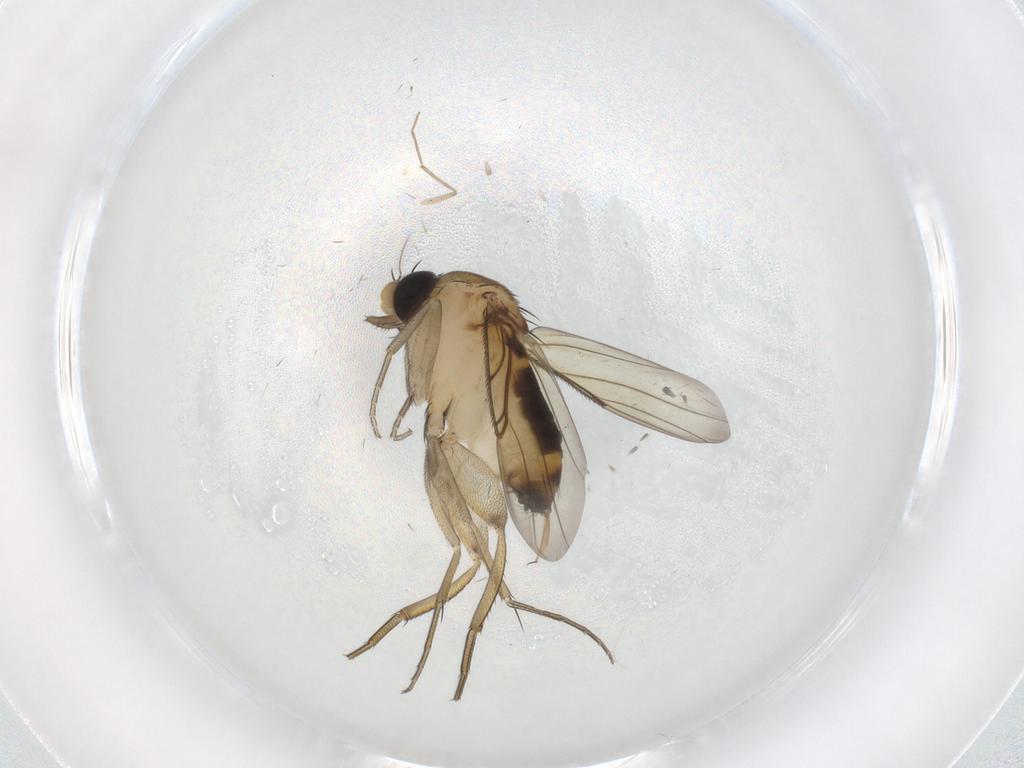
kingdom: Animalia
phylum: Arthropoda
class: Insecta
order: Diptera
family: Phoridae
